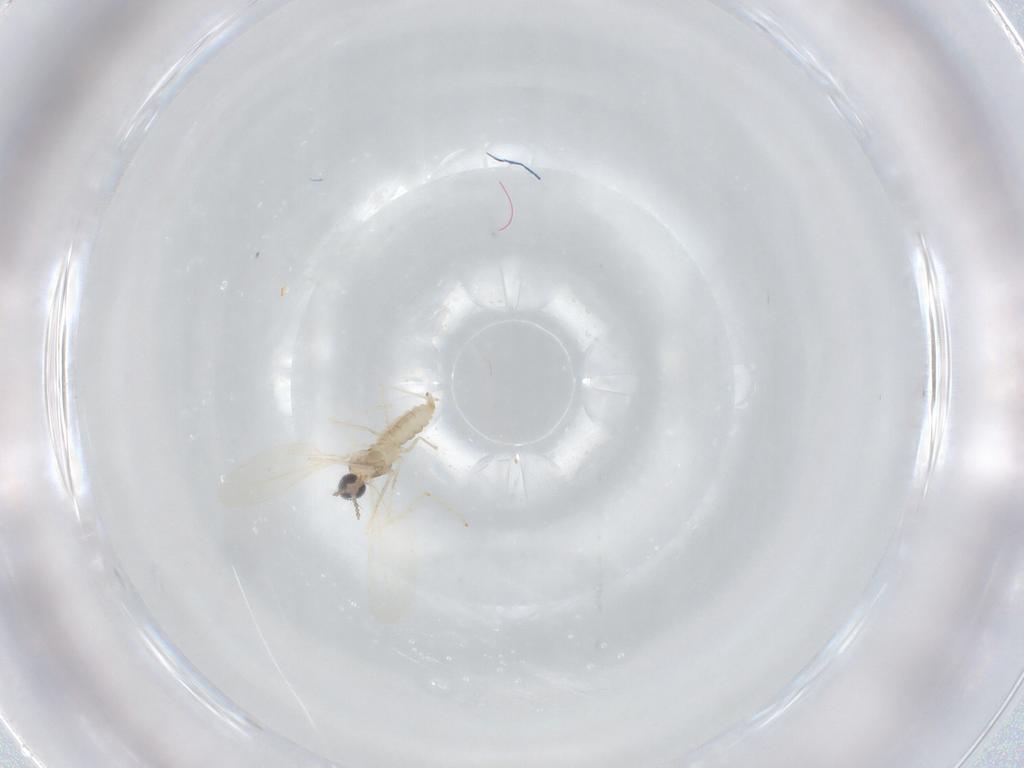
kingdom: Animalia
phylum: Arthropoda
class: Insecta
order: Diptera
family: Cecidomyiidae
